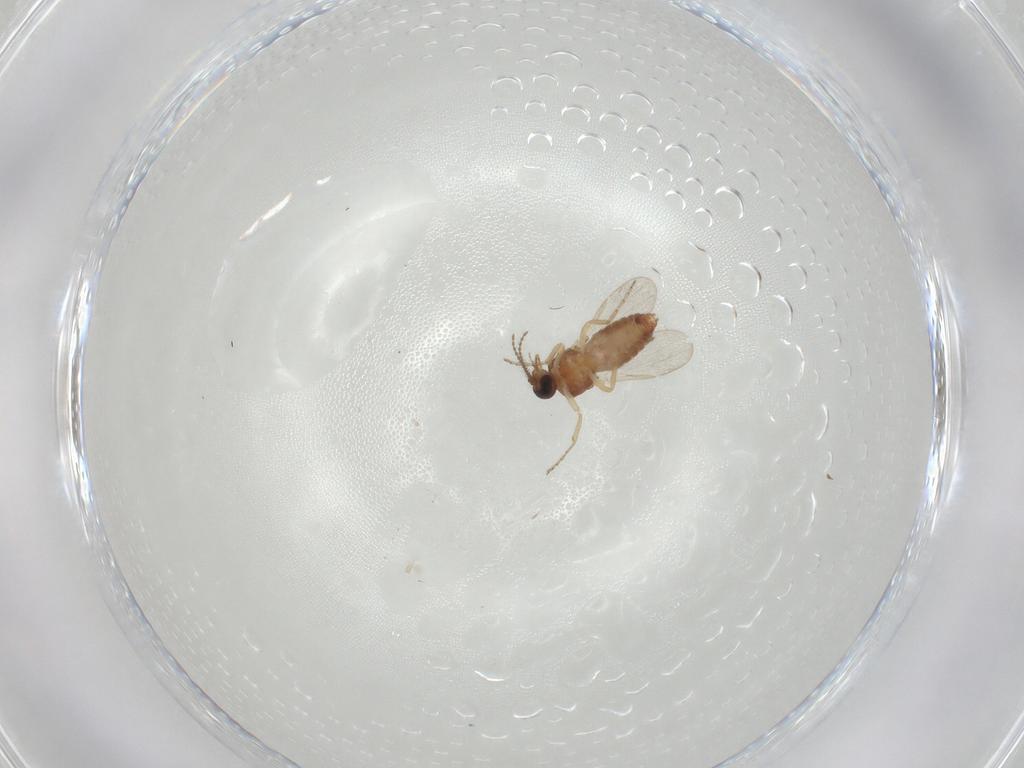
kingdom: Animalia
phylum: Arthropoda
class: Insecta
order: Diptera
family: Ceratopogonidae
